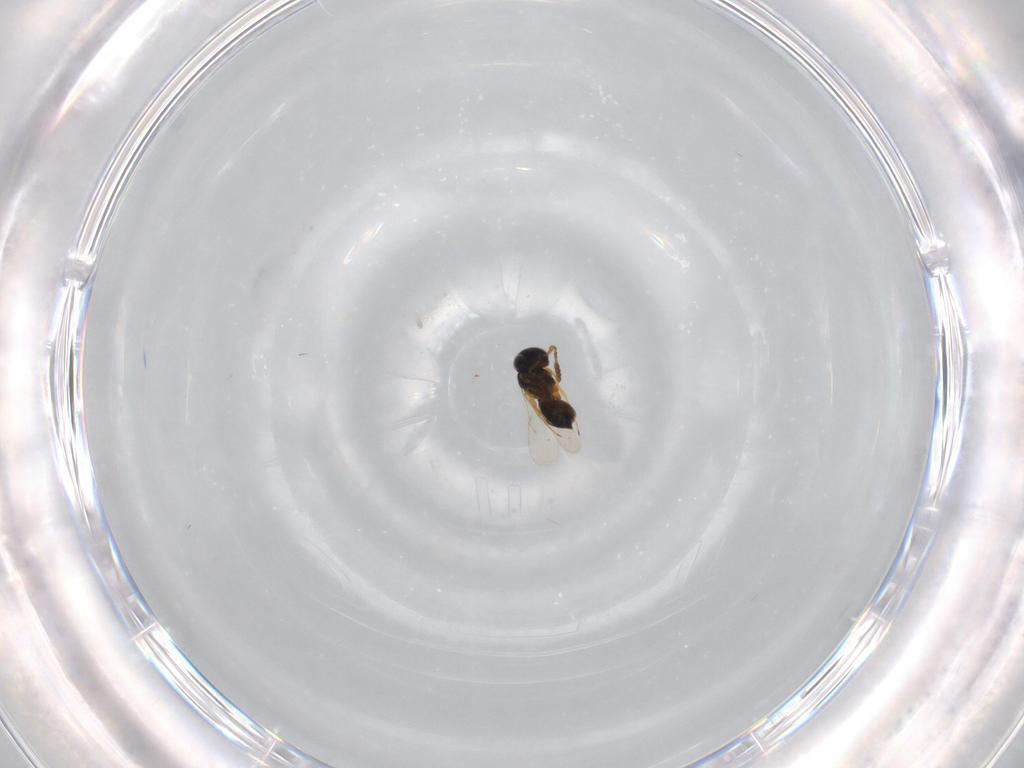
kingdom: Animalia
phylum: Arthropoda
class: Insecta
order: Hymenoptera
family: Scelionidae
